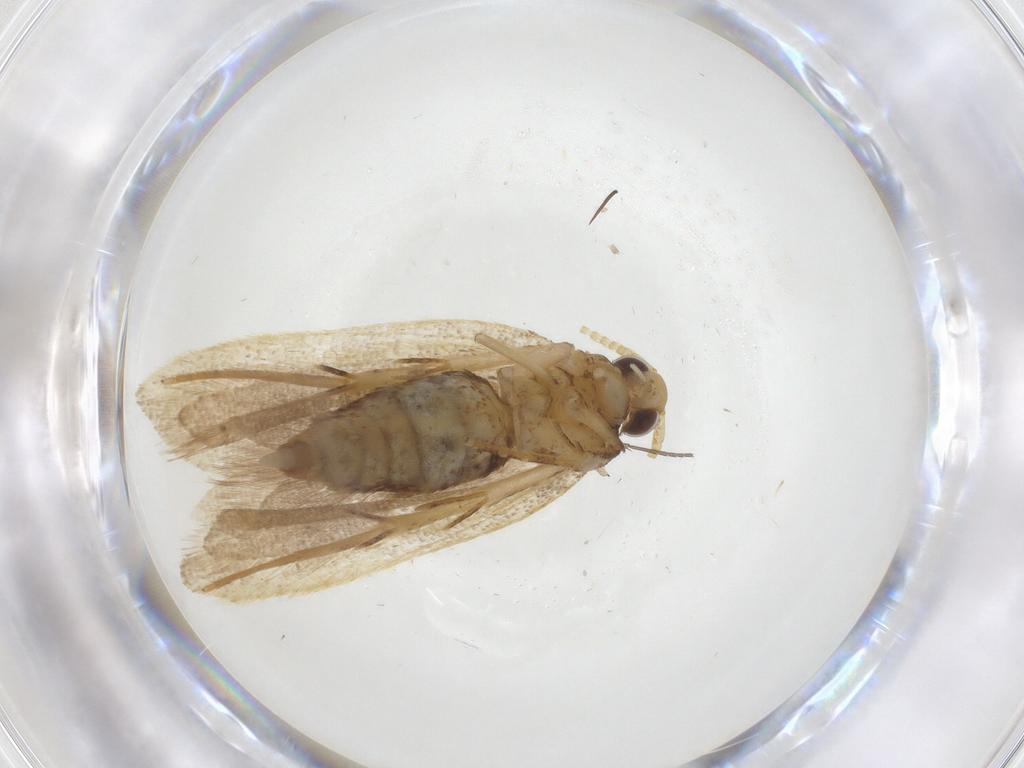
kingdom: Animalia
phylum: Arthropoda
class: Insecta
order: Lepidoptera
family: Lecithoceridae
